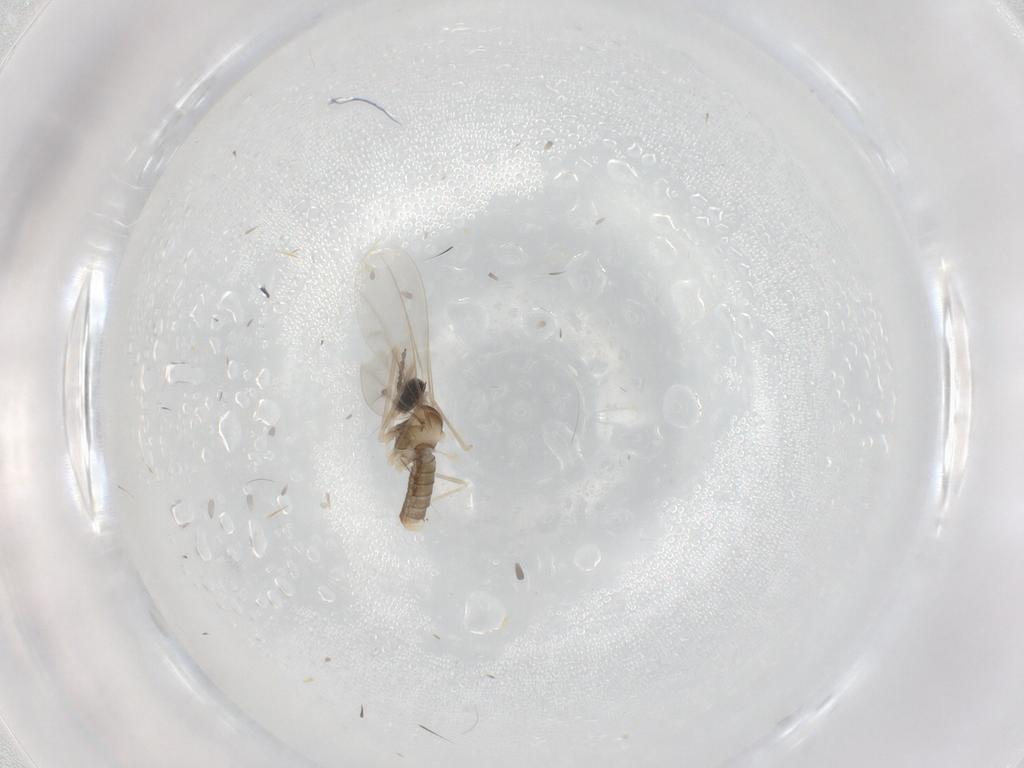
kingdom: Animalia
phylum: Arthropoda
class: Insecta
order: Diptera
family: Cecidomyiidae
